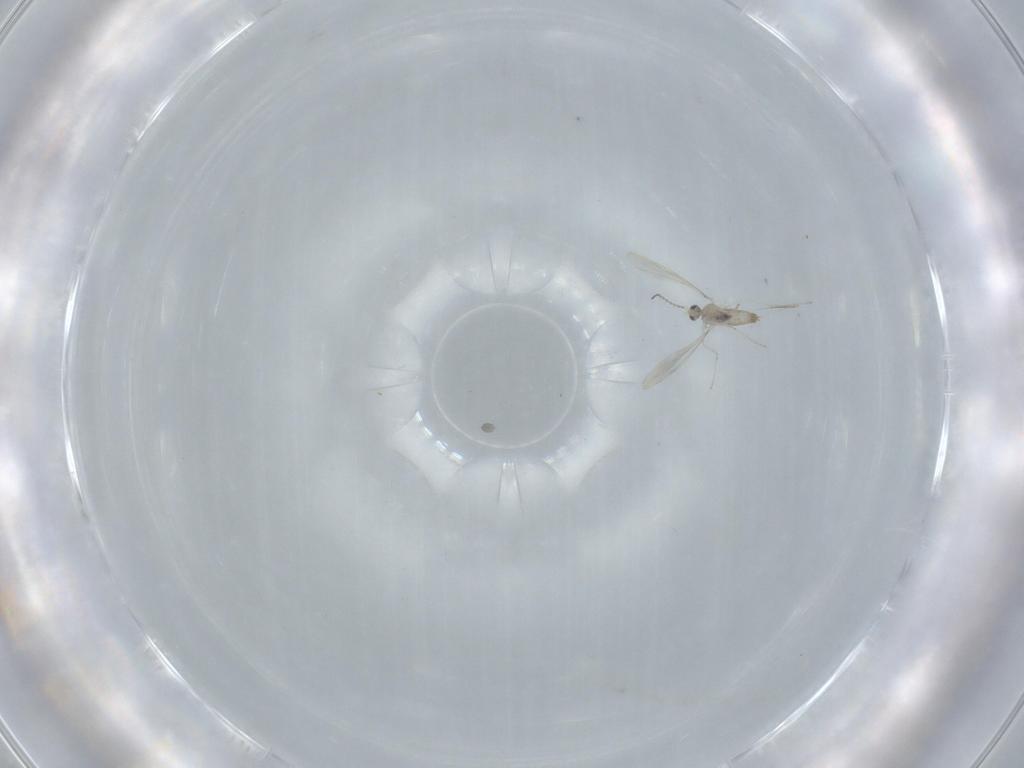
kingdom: Animalia
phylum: Arthropoda
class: Insecta
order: Diptera
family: Cecidomyiidae
